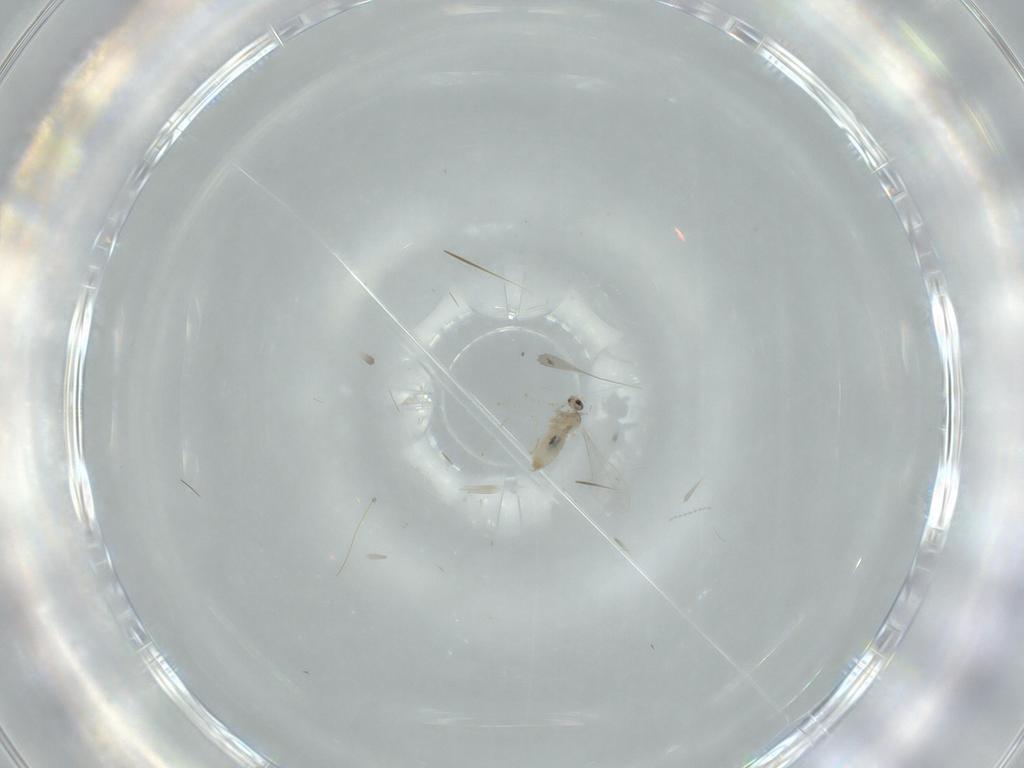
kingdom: Animalia
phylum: Arthropoda
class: Insecta
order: Diptera
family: Cecidomyiidae
